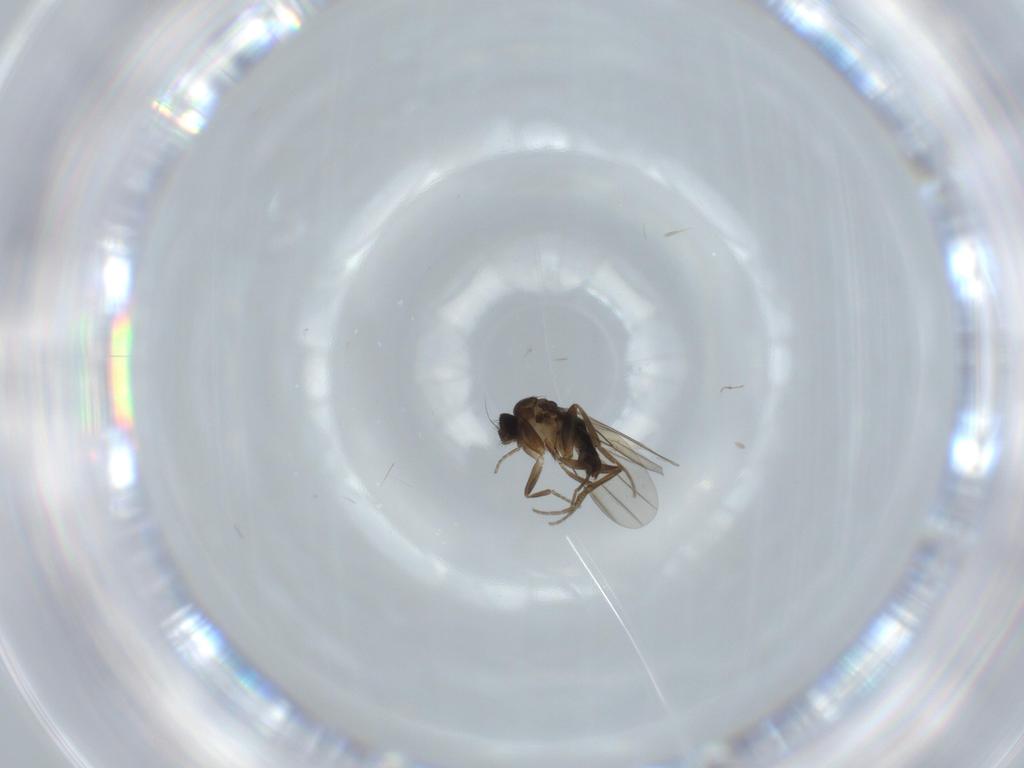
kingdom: Animalia
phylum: Arthropoda
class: Insecta
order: Diptera
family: Phoridae
